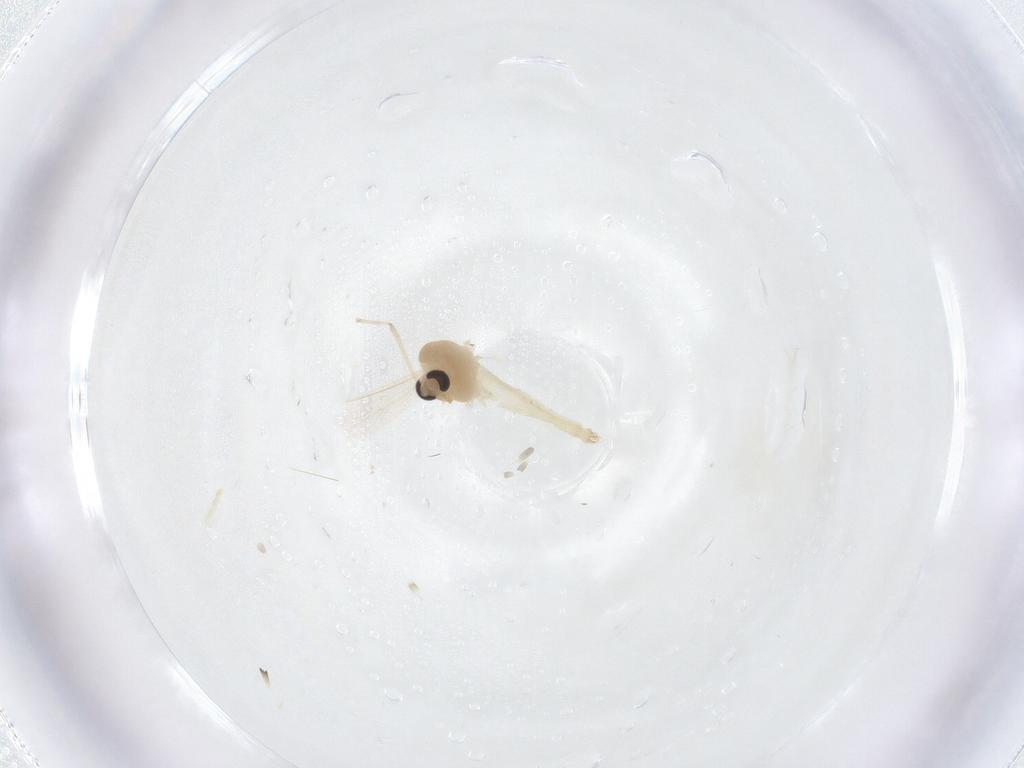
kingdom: Animalia
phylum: Arthropoda
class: Insecta
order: Diptera
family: Chironomidae
